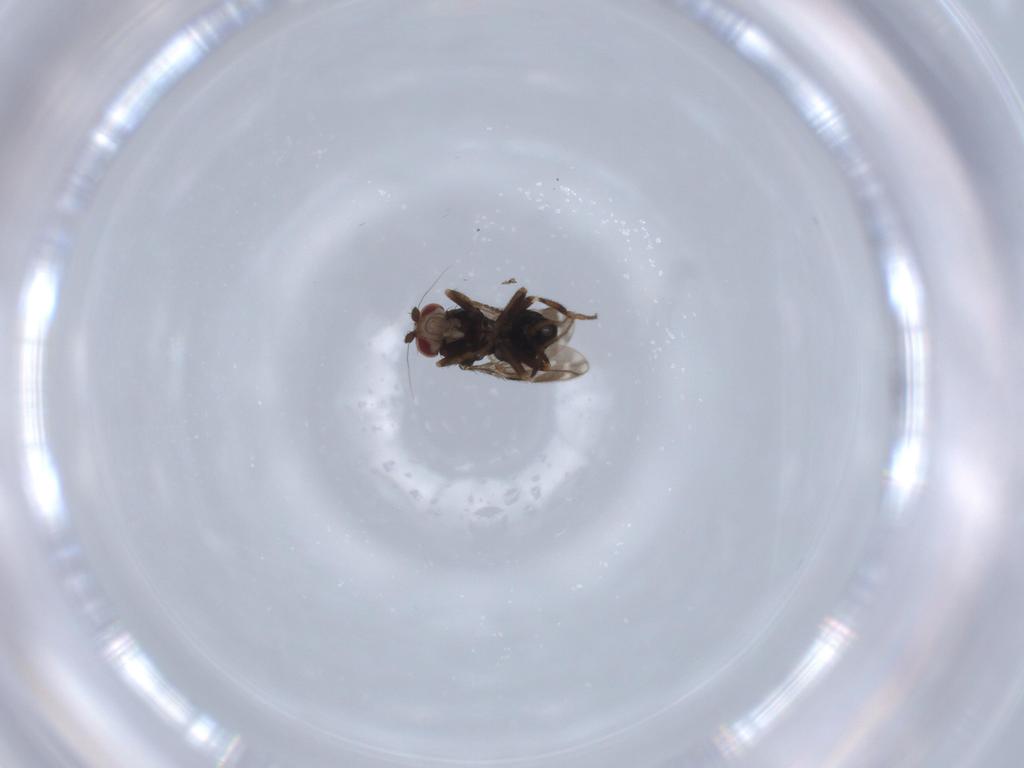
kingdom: Animalia
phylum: Arthropoda
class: Insecta
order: Diptera
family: Sphaeroceridae
